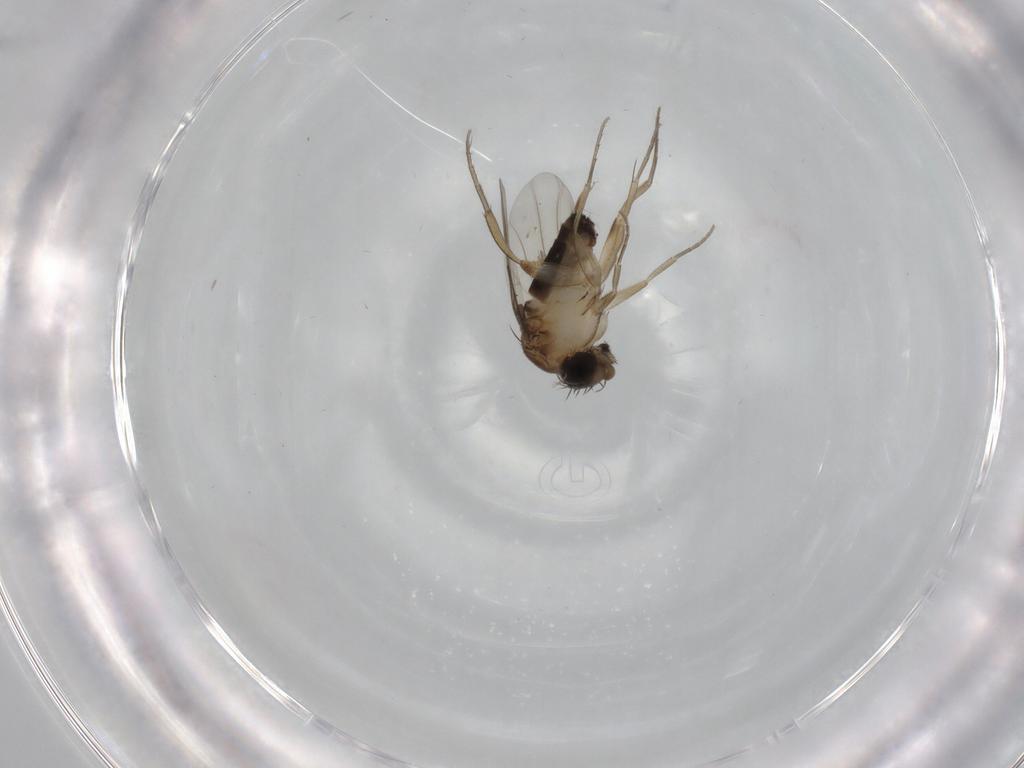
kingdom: Animalia
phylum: Arthropoda
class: Insecta
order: Diptera
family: Phoridae
